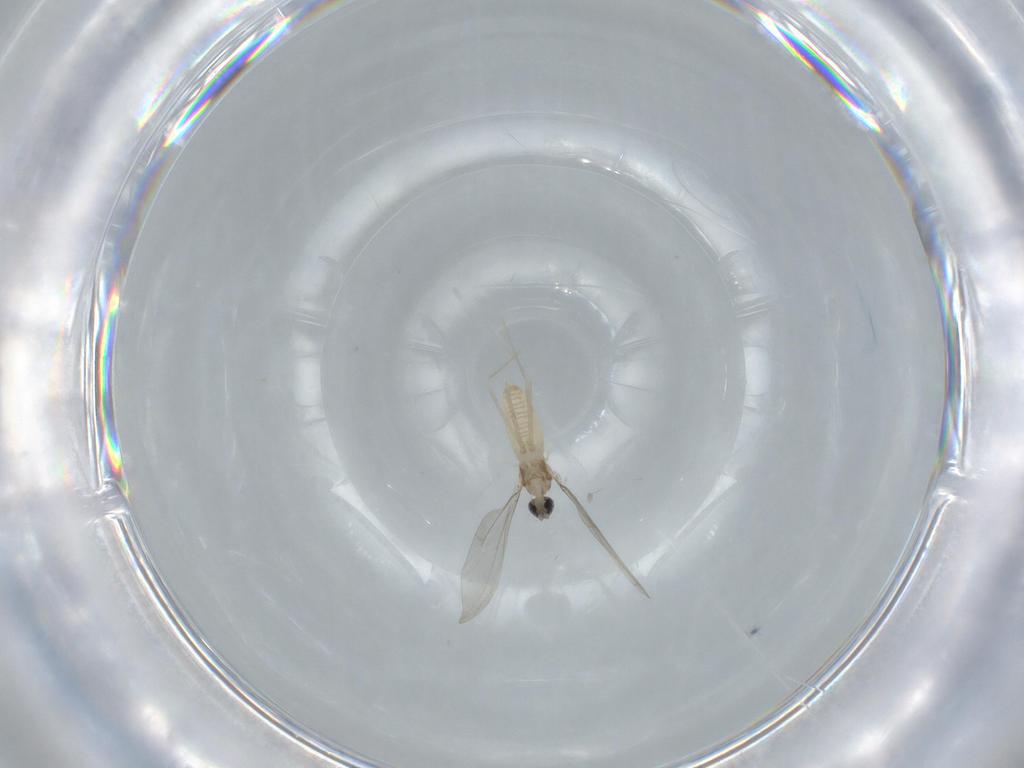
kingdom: Animalia
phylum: Arthropoda
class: Insecta
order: Diptera
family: Cecidomyiidae
